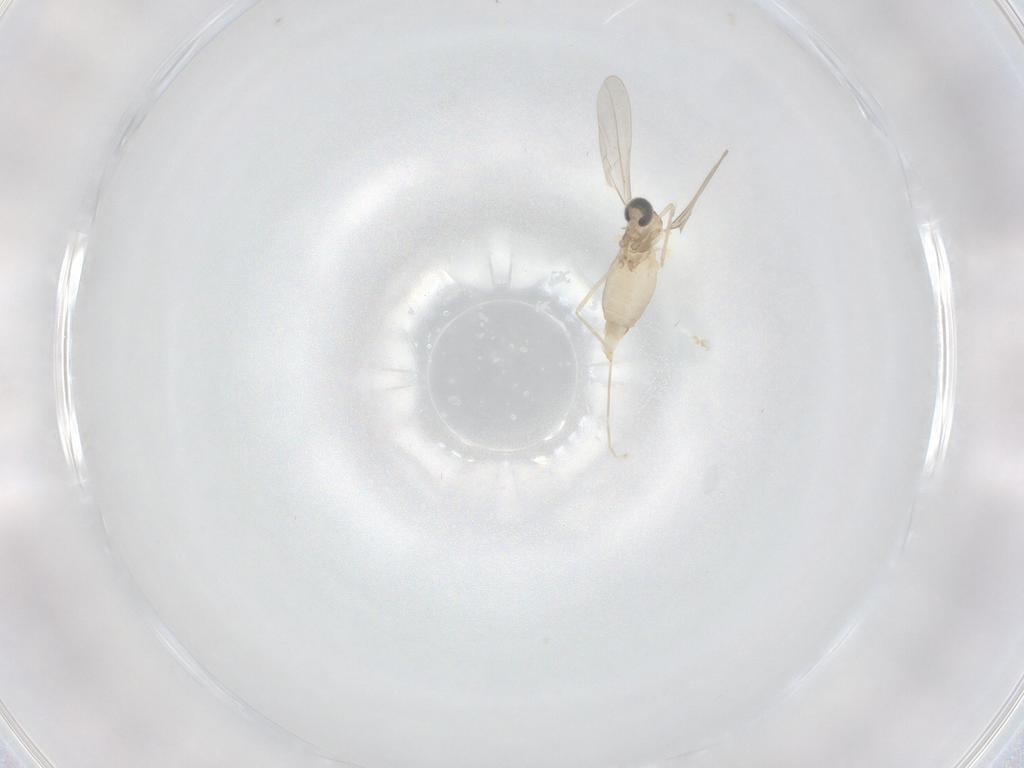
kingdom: Animalia
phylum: Arthropoda
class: Insecta
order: Diptera
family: Cecidomyiidae
